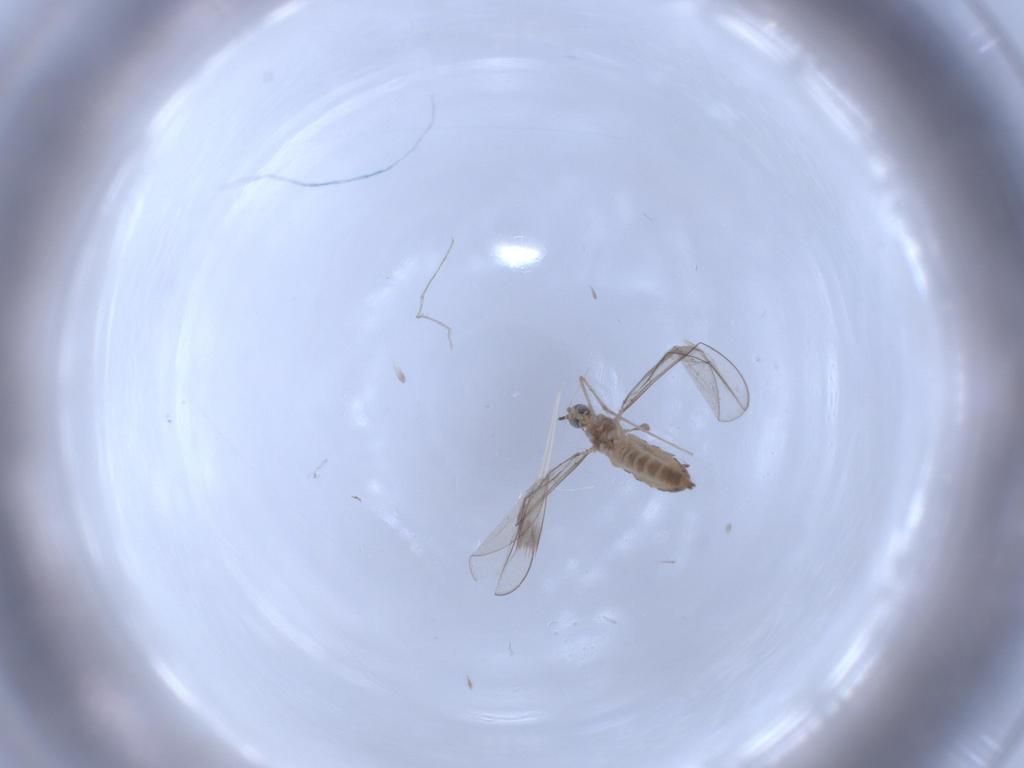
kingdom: Animalia
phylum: Arthropoda
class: Insecta
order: Diptera
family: Cecidomyiidae
